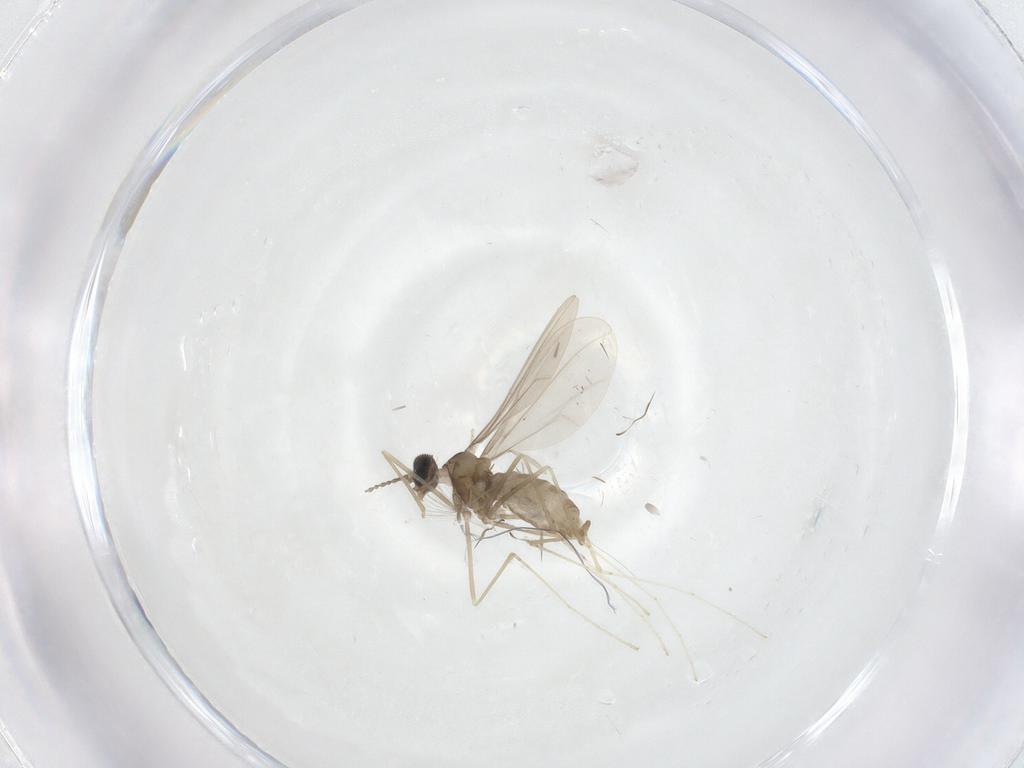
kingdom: Animalia
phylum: Arthropoda
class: Insecta
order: Diptera
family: Cecidomyiidae
